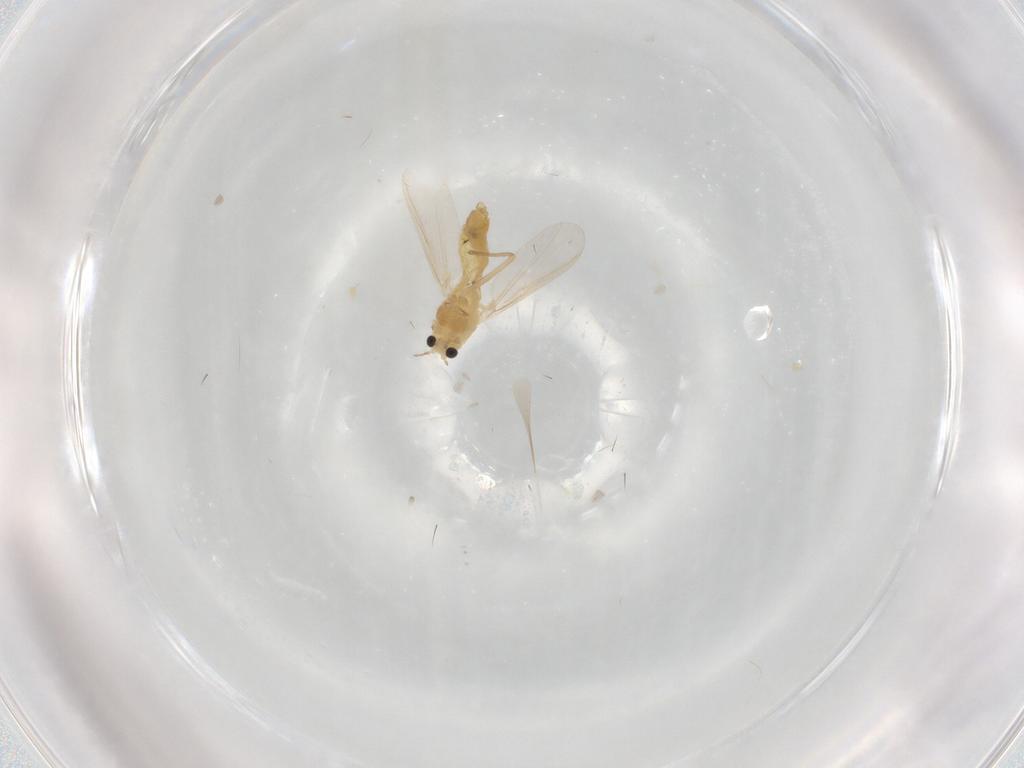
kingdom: Animalia
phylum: Arthropoda
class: Insecta
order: Diptera
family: Chironomidae
